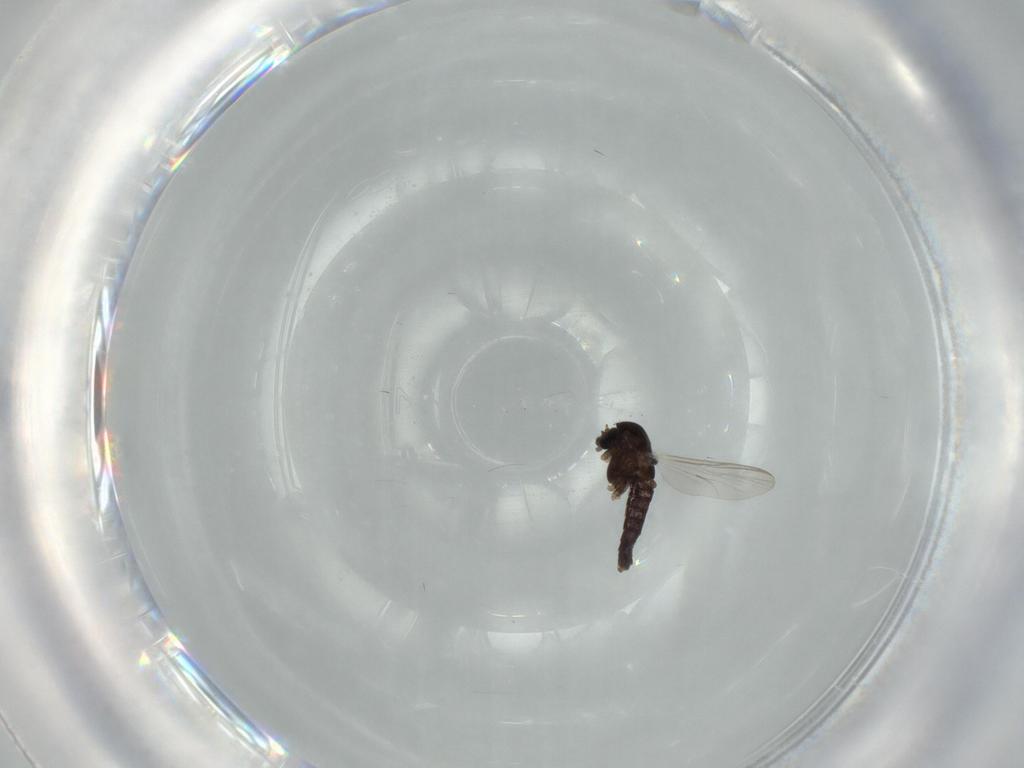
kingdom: Animalia
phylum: Arthropoda
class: Insecta
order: Diptera
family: Chironomidae
